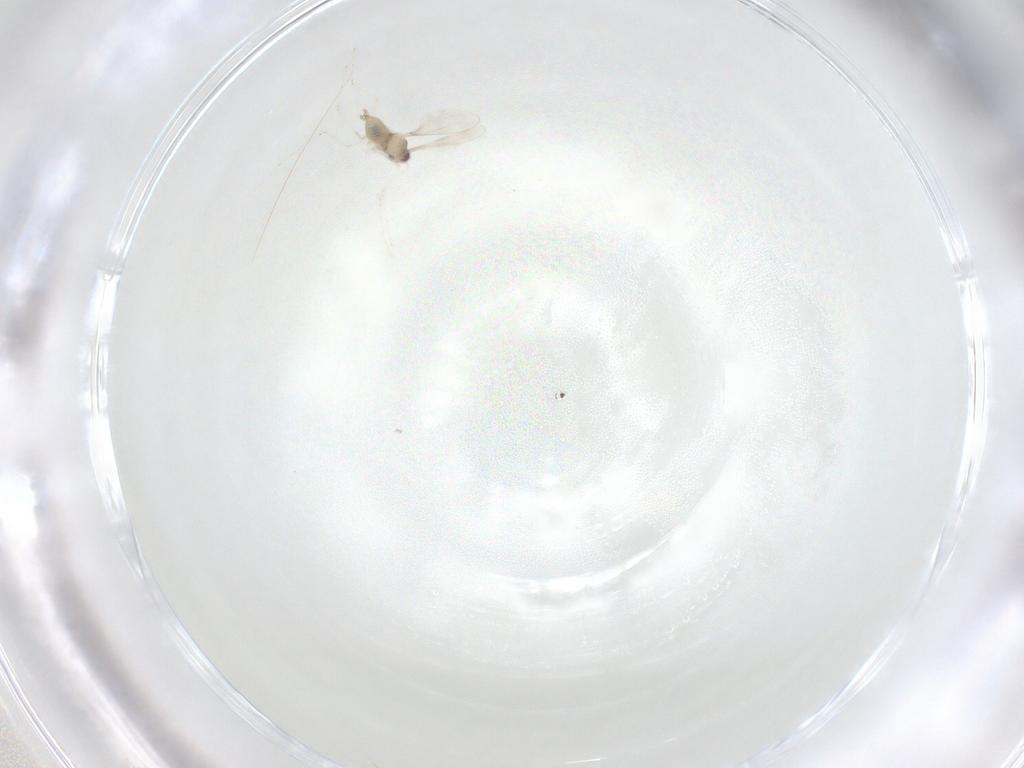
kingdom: Animalia
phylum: Arthropoda
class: Insecta
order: Diptera
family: Cecidomyiidae
